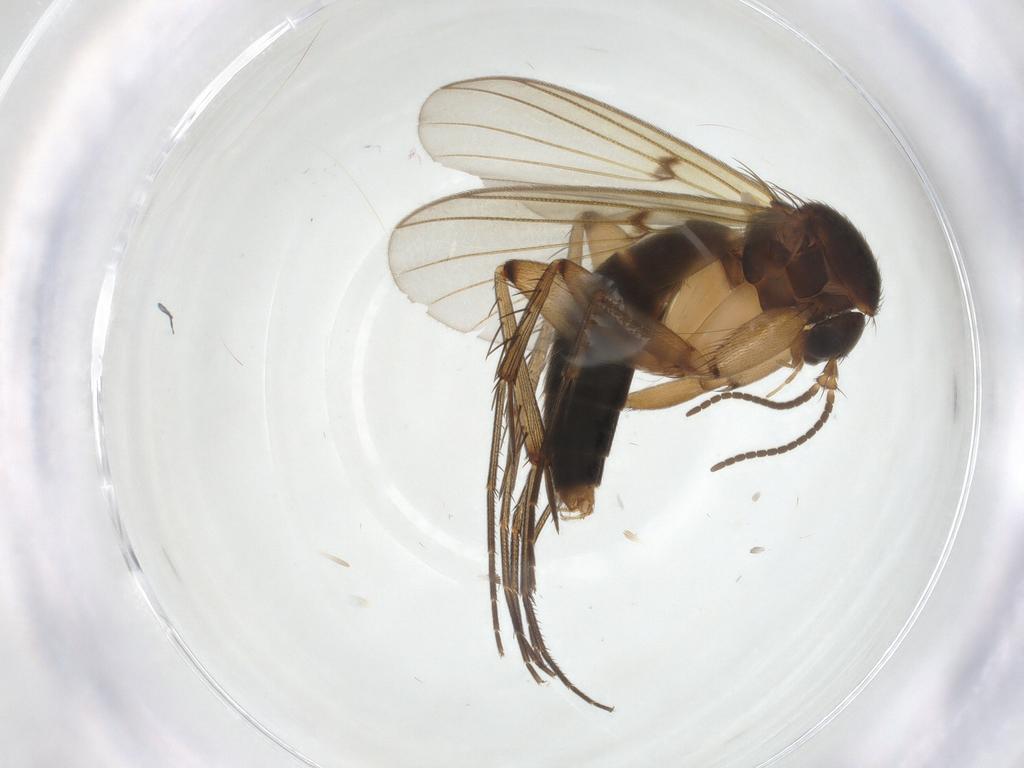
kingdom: Animalia
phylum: Arthropoda
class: Insecta
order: Diptera
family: Mycetophilidae
